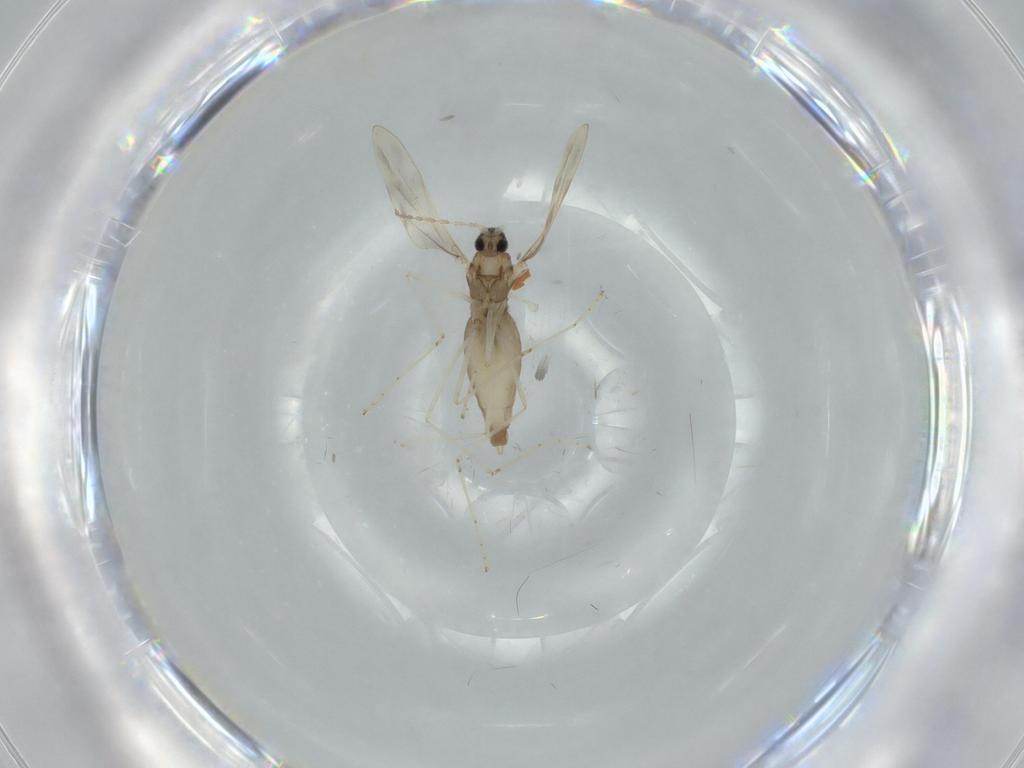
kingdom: Animalia
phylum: Arthropoda
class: Insecta
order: Diptera
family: Cecidomyiidae
